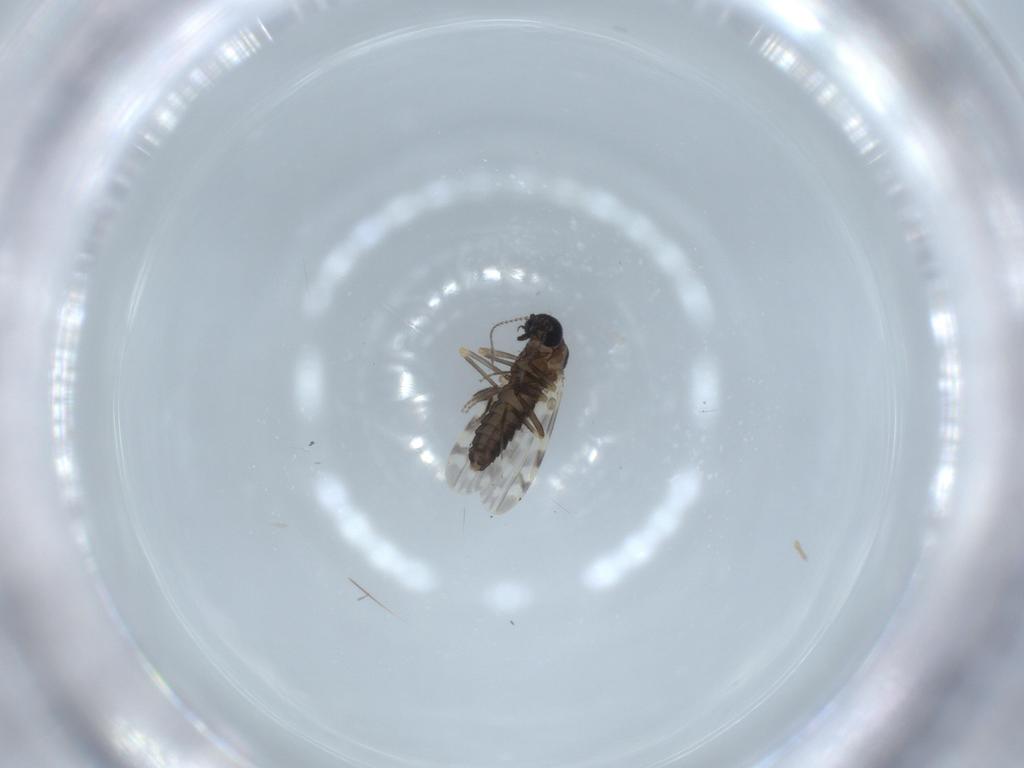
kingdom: Animalia
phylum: Arthropoda
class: Insecta
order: Diptera
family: Ceratopogonidae
